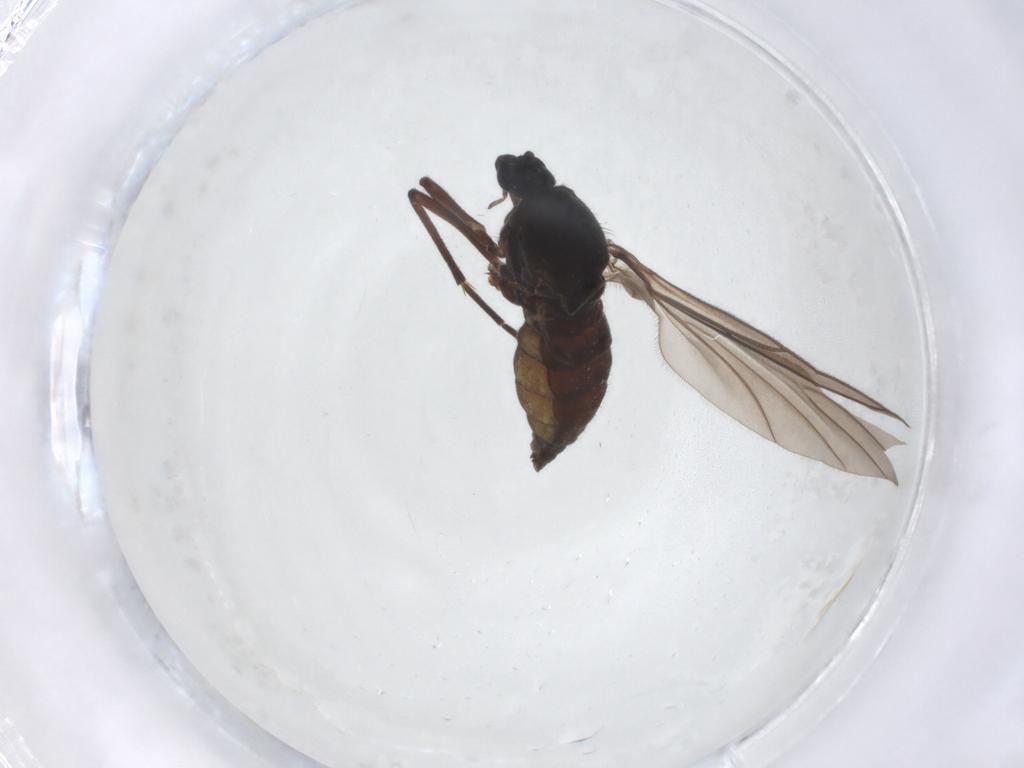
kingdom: Animalia
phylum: Arthropoda
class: Insecta
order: Diptera
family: Sciaridae
